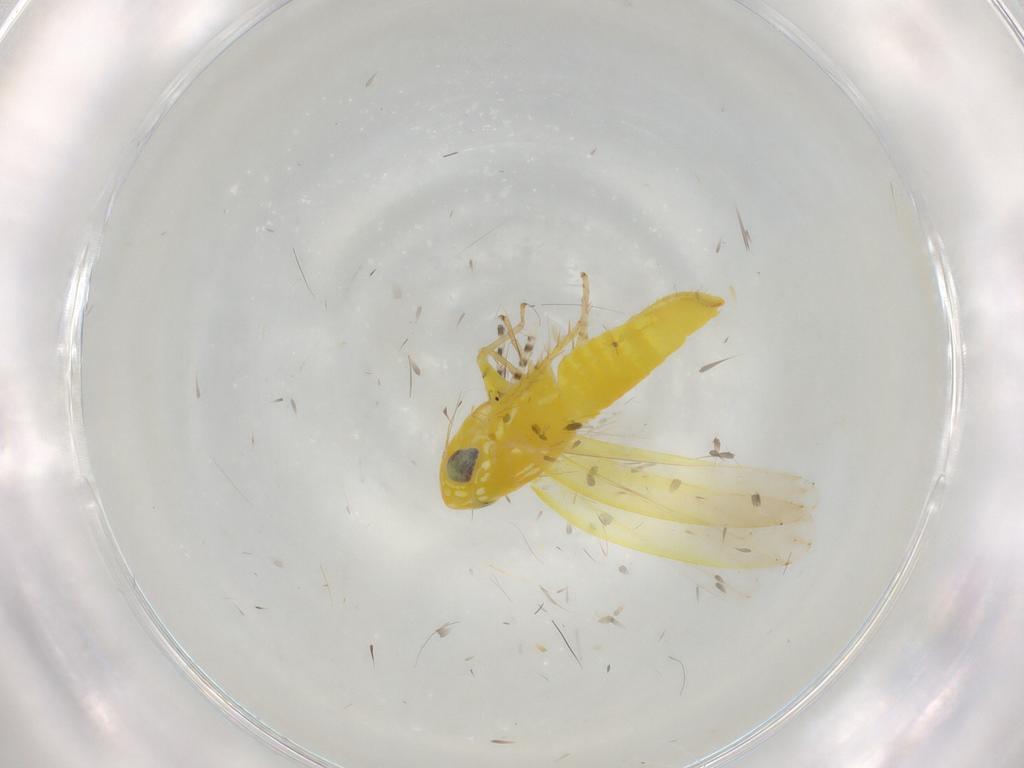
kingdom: Animalia
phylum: Arthropoda
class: Insecta
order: Hemiptera
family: Cicadellidae
